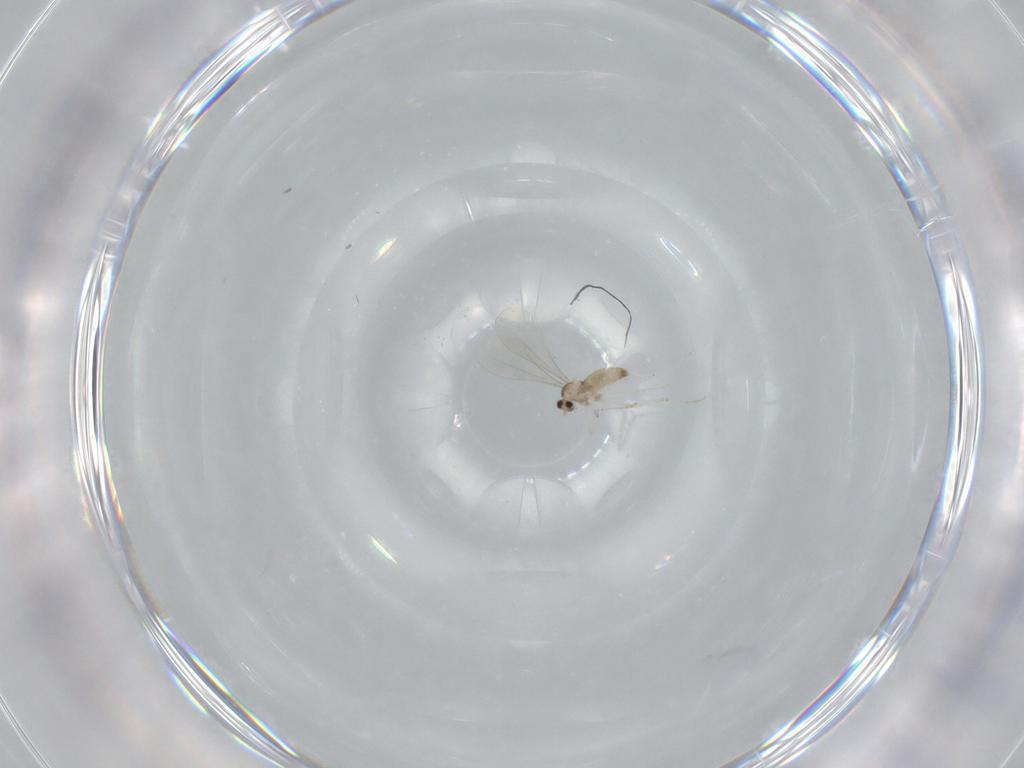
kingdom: Animalia
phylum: Arthropoda
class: Insecta
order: Diptera
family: Cecidomyiidae
